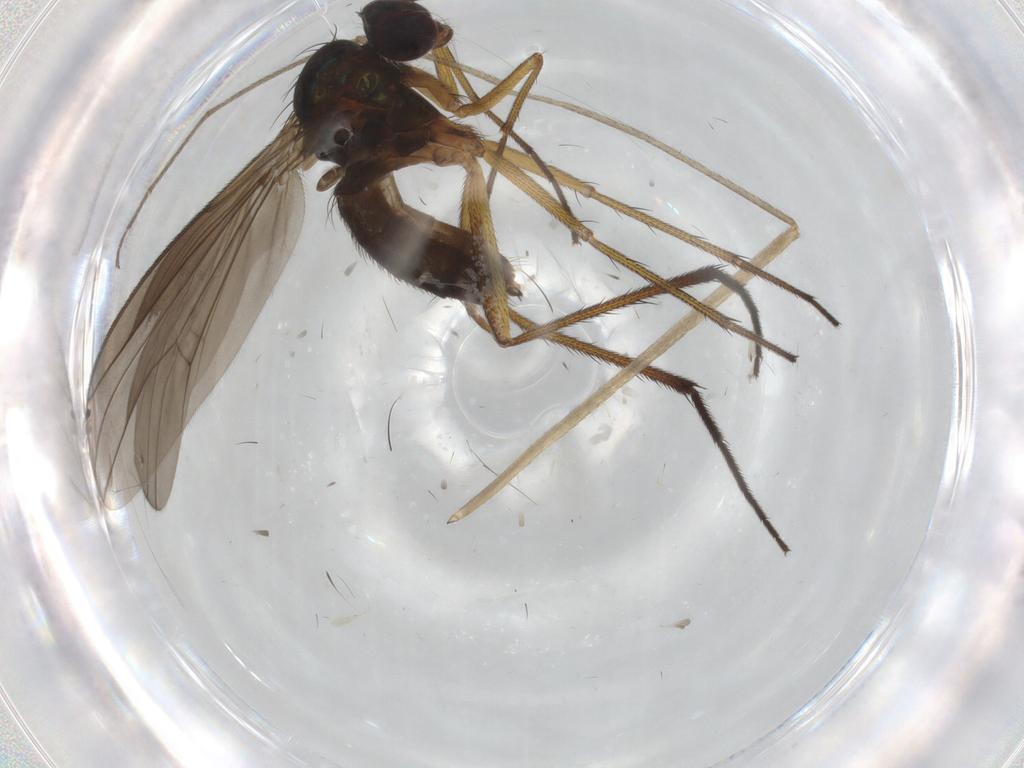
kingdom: Animalia
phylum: Arthropoda
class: Insecta
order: Diptera
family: Dolichopodidae
